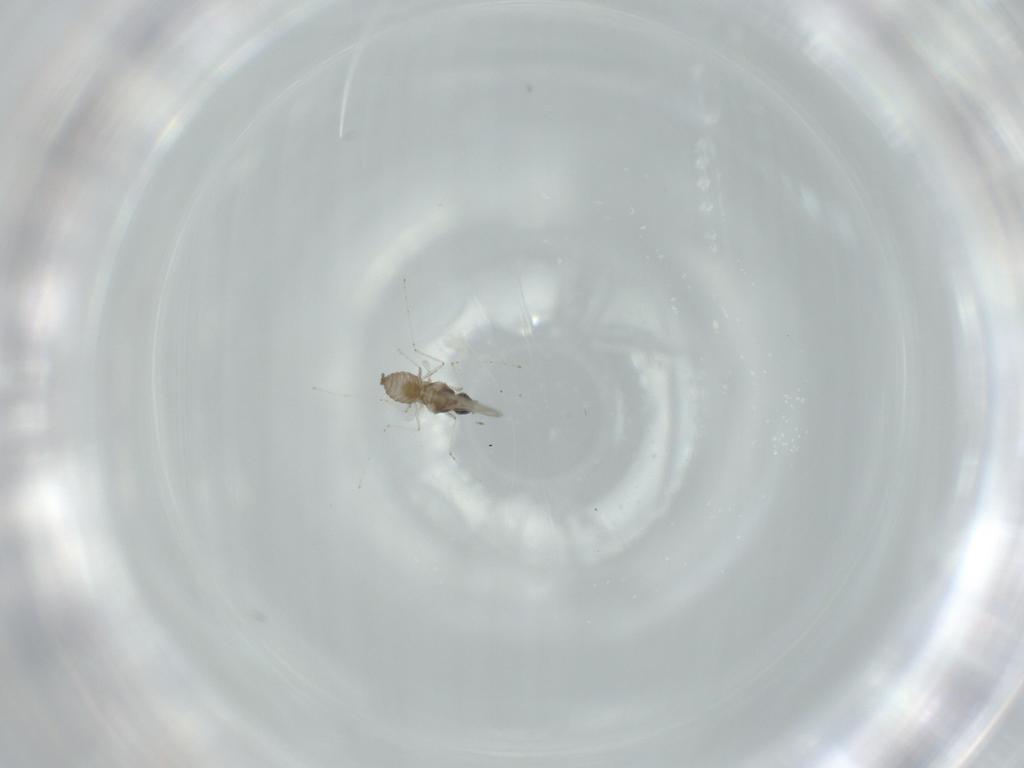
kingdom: Animalia
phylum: Arthropoda
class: Insecta
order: Diptera
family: Cecidomyiidae
